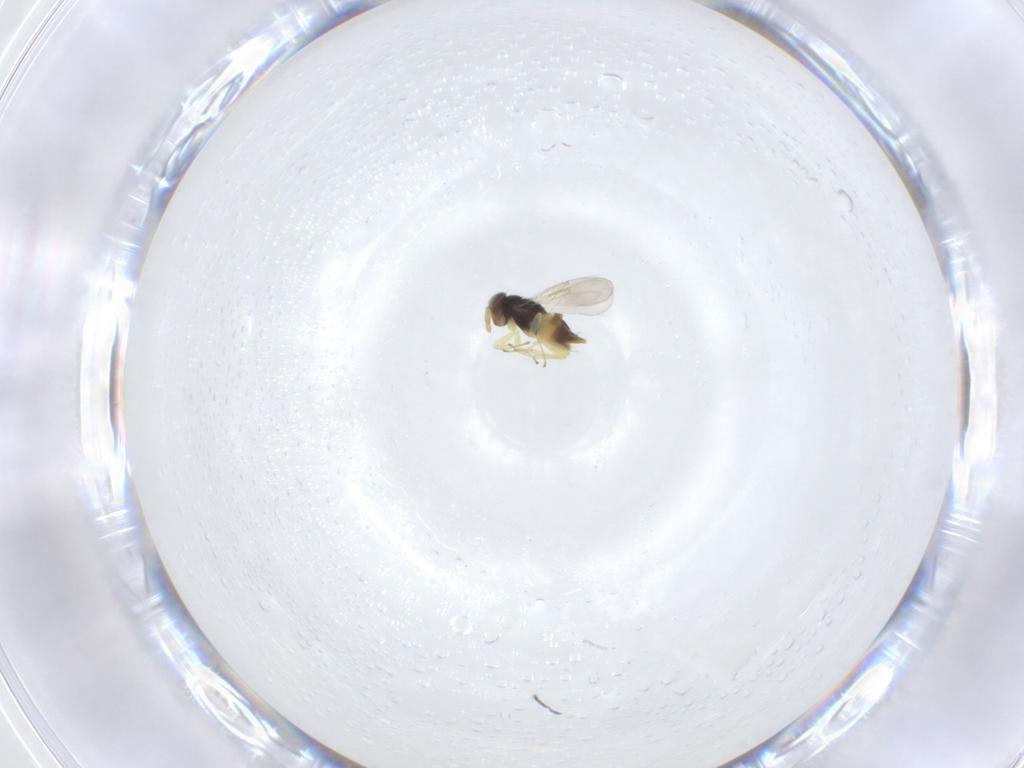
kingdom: Animalia
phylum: Arthropoda
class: Insecta
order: Hymenoptera
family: Aphelinidae
